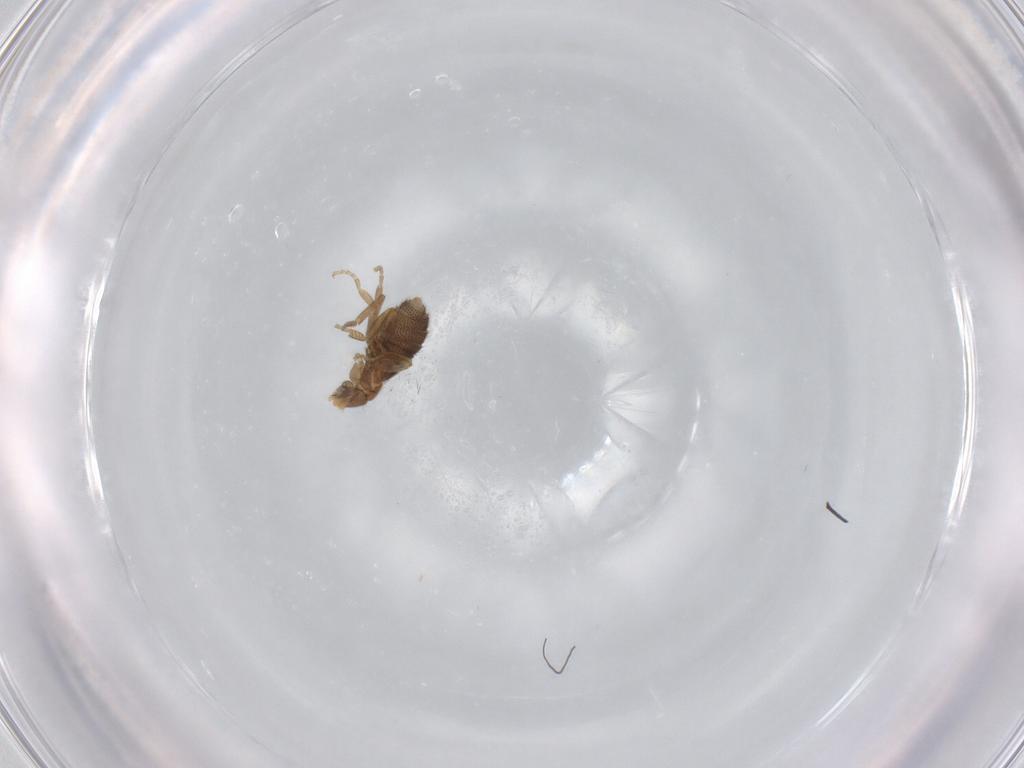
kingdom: Animalia
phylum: Arthropoda
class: Insecta
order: Diptera
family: Phoridae
